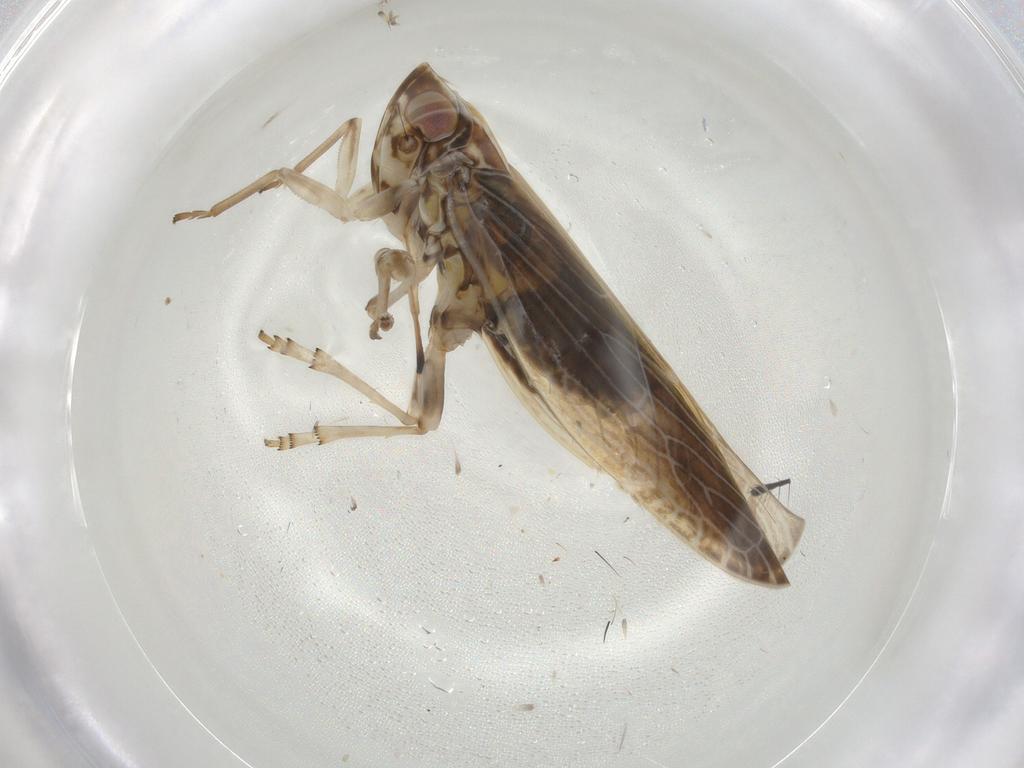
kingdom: Animalia
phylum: Arthropoda
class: Insecta
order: Hemiptera
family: Achilidae
